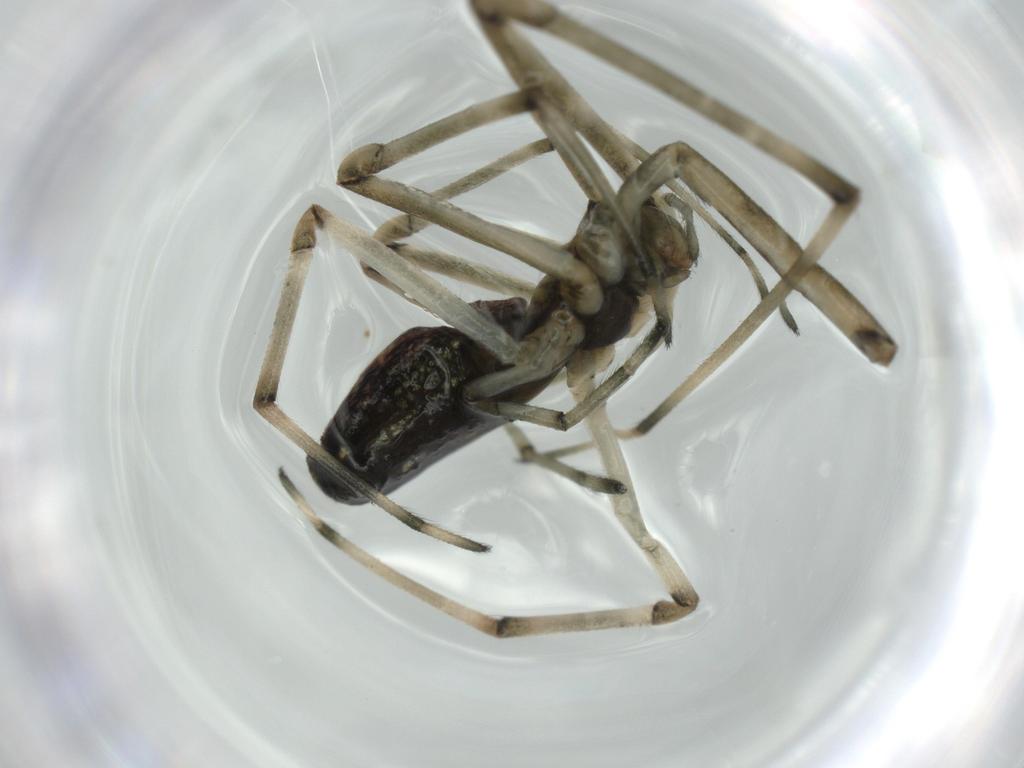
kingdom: Animalia
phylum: Arthropoda
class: Arachnida
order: Araneae
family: Tetragnathidae
